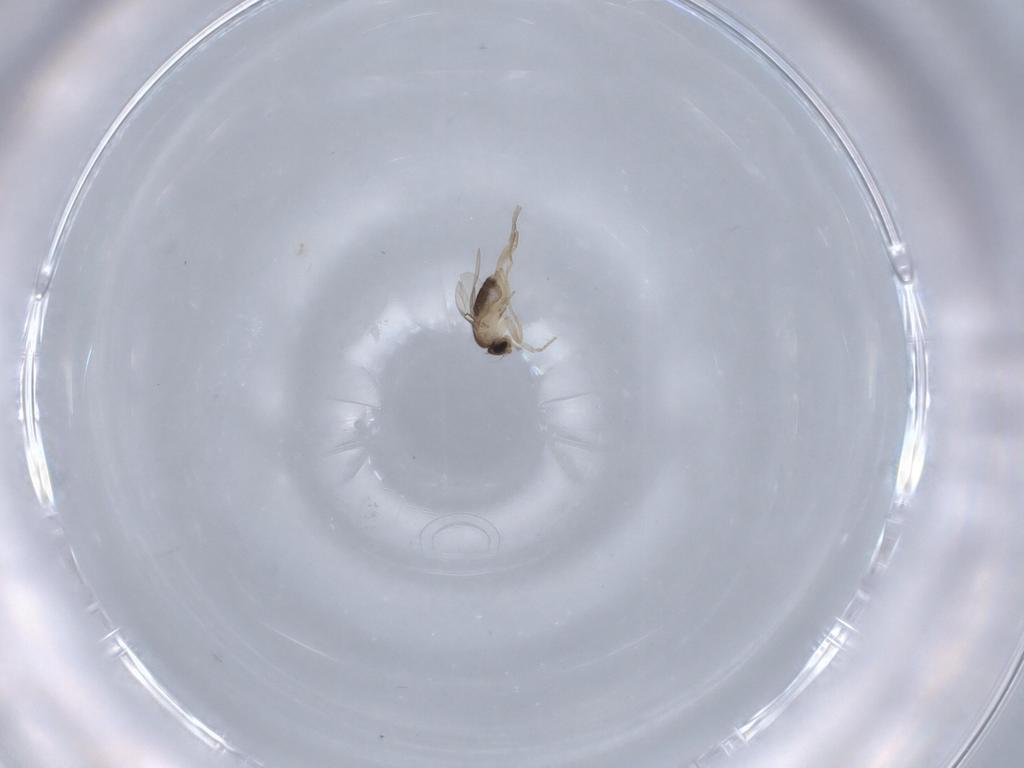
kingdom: Animalia
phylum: Arthropoda
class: Insecta
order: Diptera
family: Phoridae
